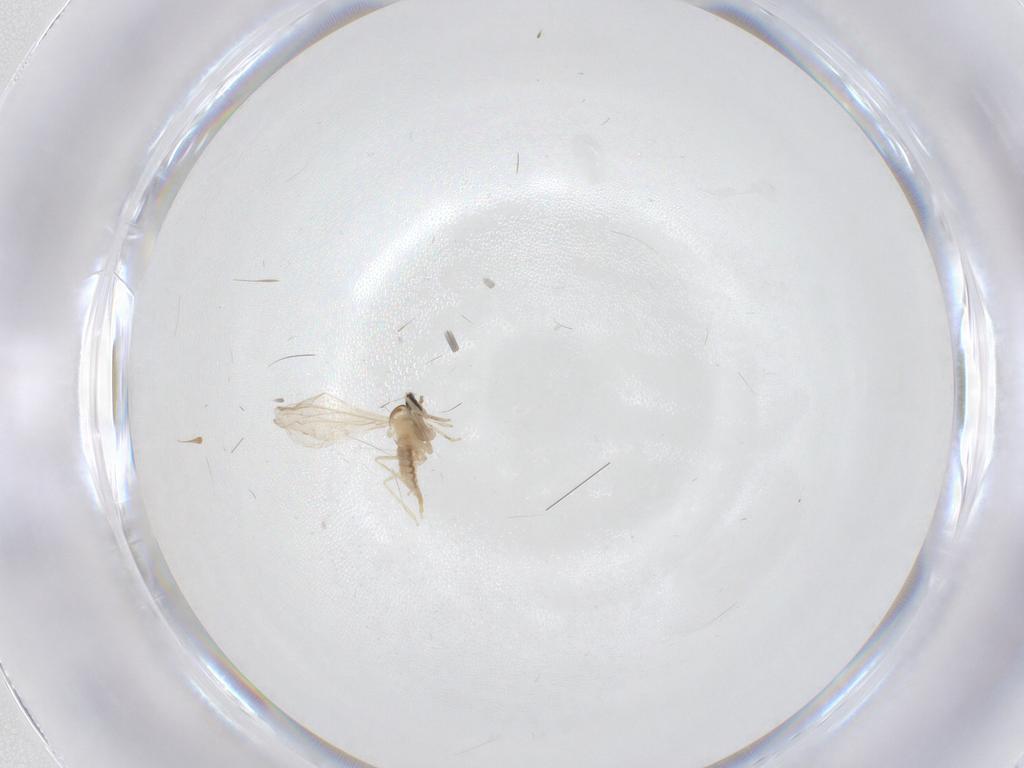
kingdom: Animalia
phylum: Arthropoda
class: Insecta
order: Diptera
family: Cecidomyiidae
